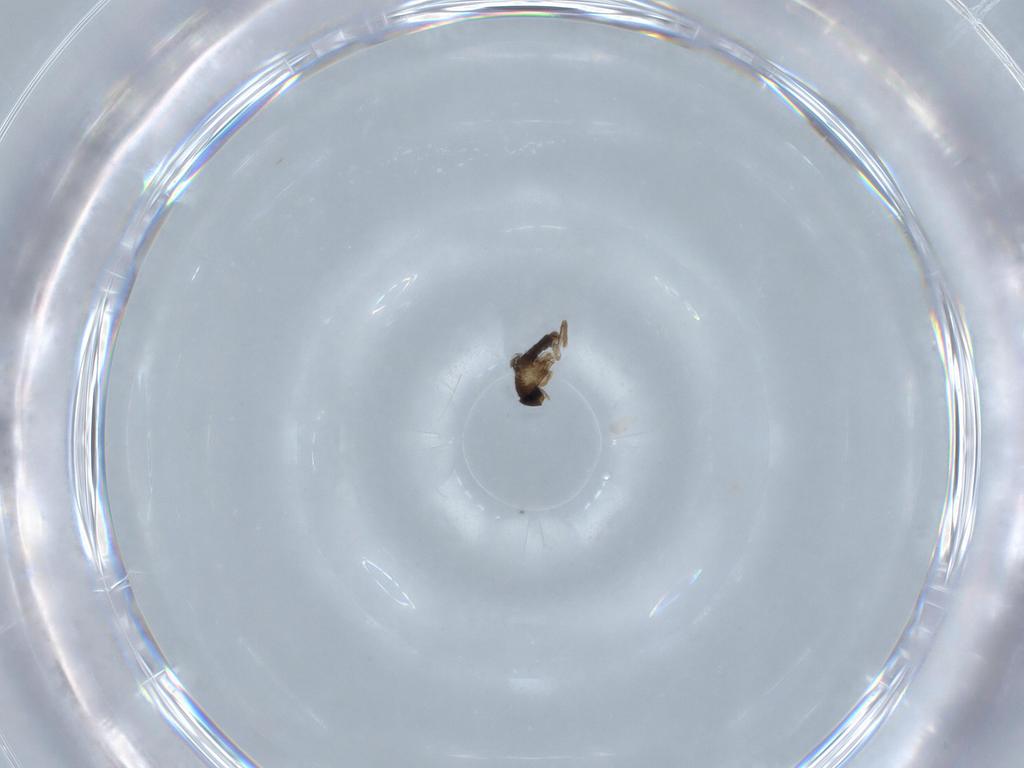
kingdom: Animalia
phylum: Arthropoda
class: Insecta
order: Diptera
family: Phoridae
